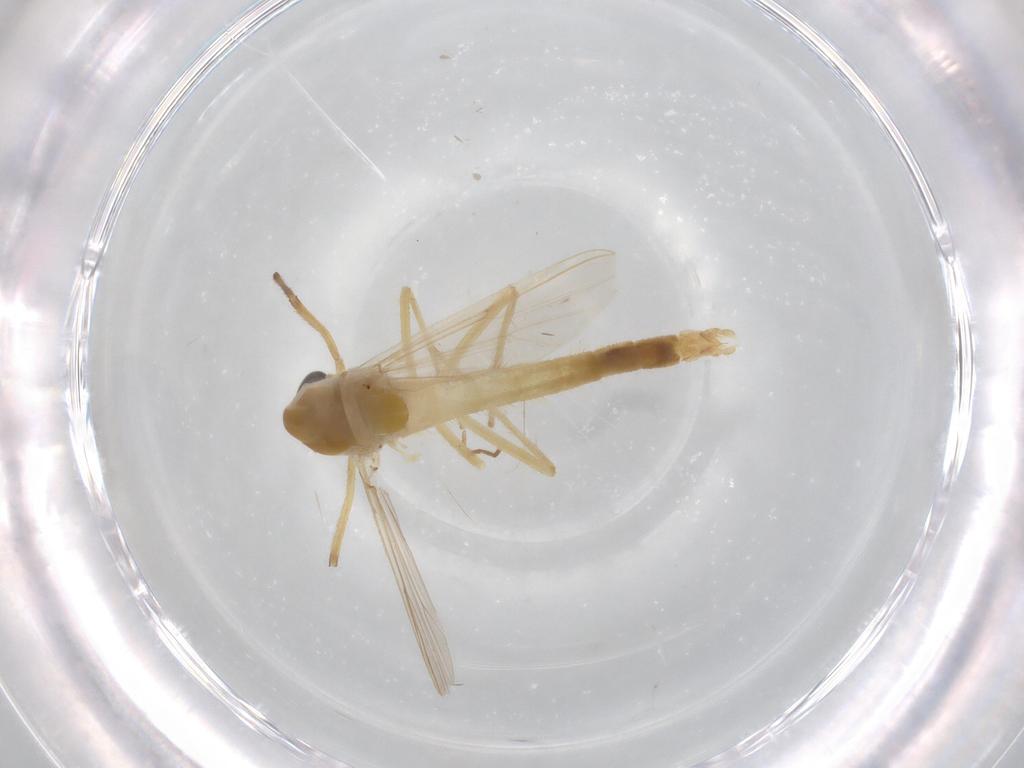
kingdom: Animalia
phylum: Arthropoda
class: Insecta
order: Diptera
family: Chironomidae
